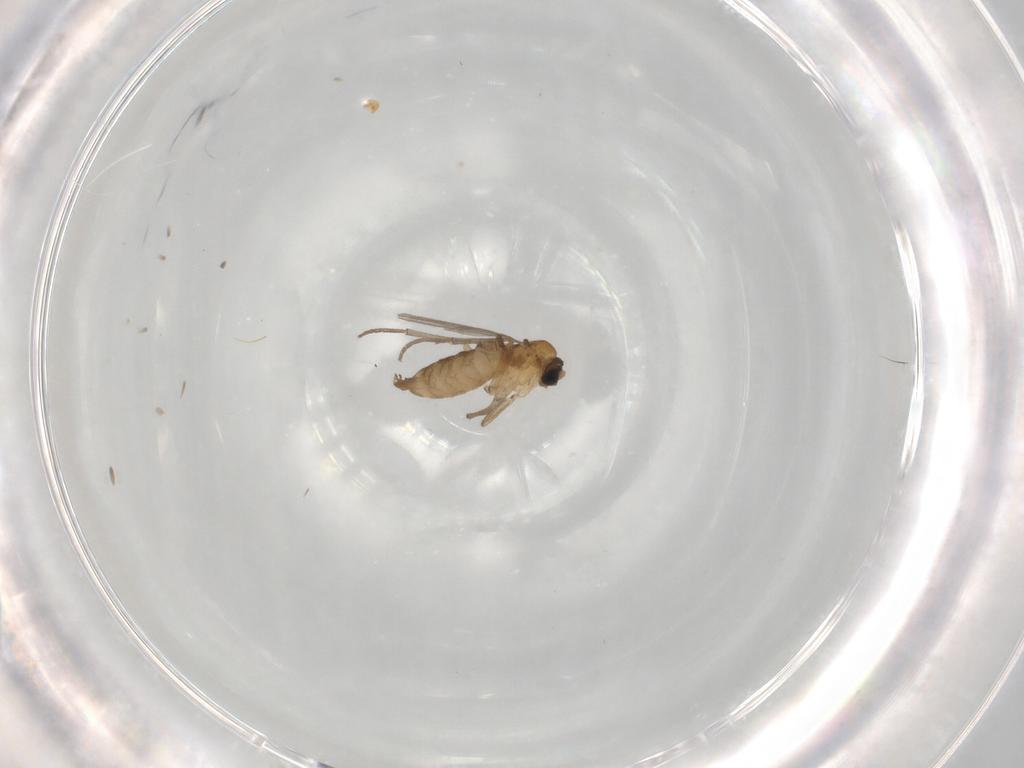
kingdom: Animalia
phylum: Arthropoda
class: Insecta
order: Diptera
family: Sciaridae
